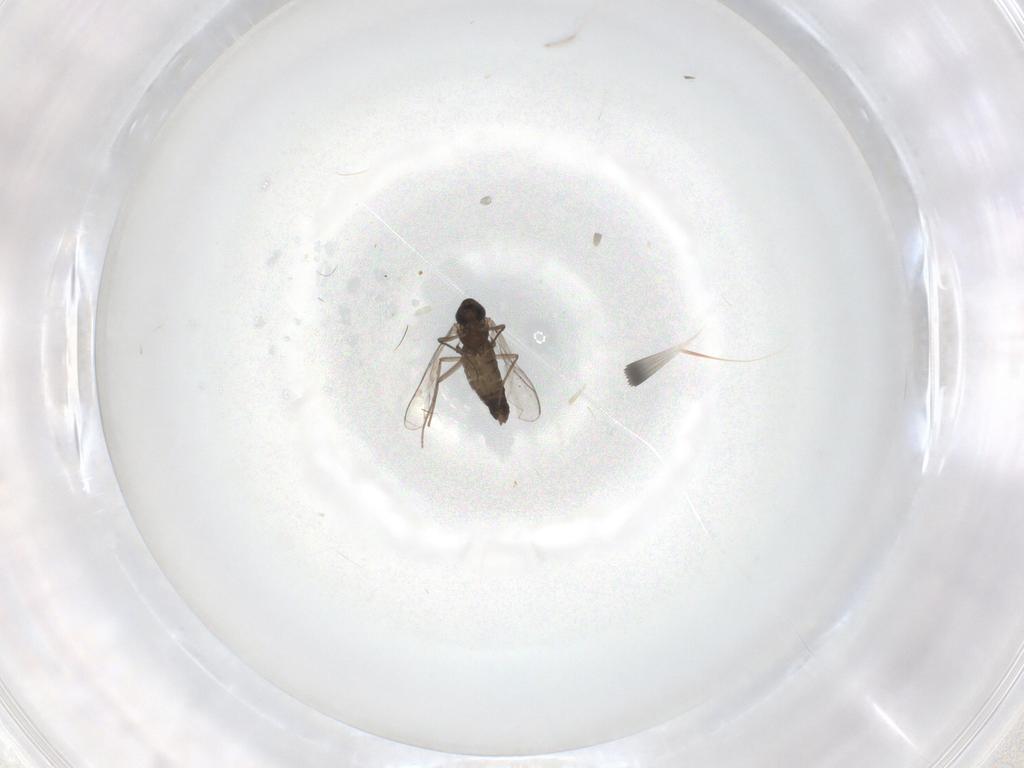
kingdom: Animalia
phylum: Arthropoda
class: Insecta
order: Diptera
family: Chironomidae
